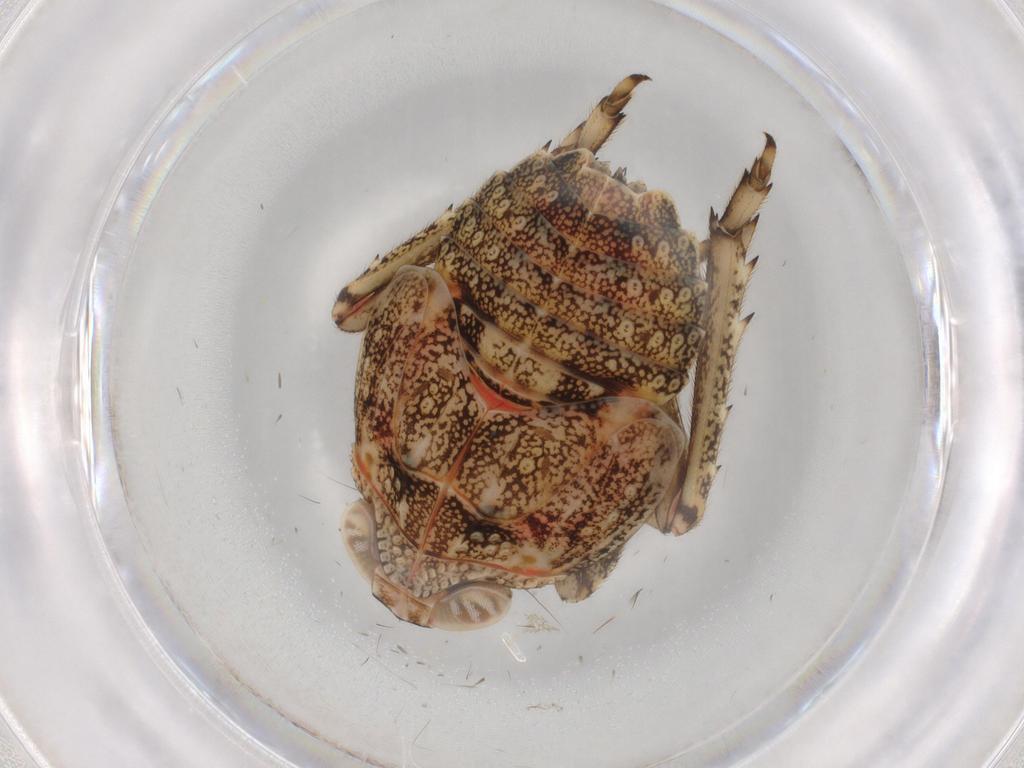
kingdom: Animalia
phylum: Arthropoda
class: Insecta
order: Hemiptera
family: Issidae
